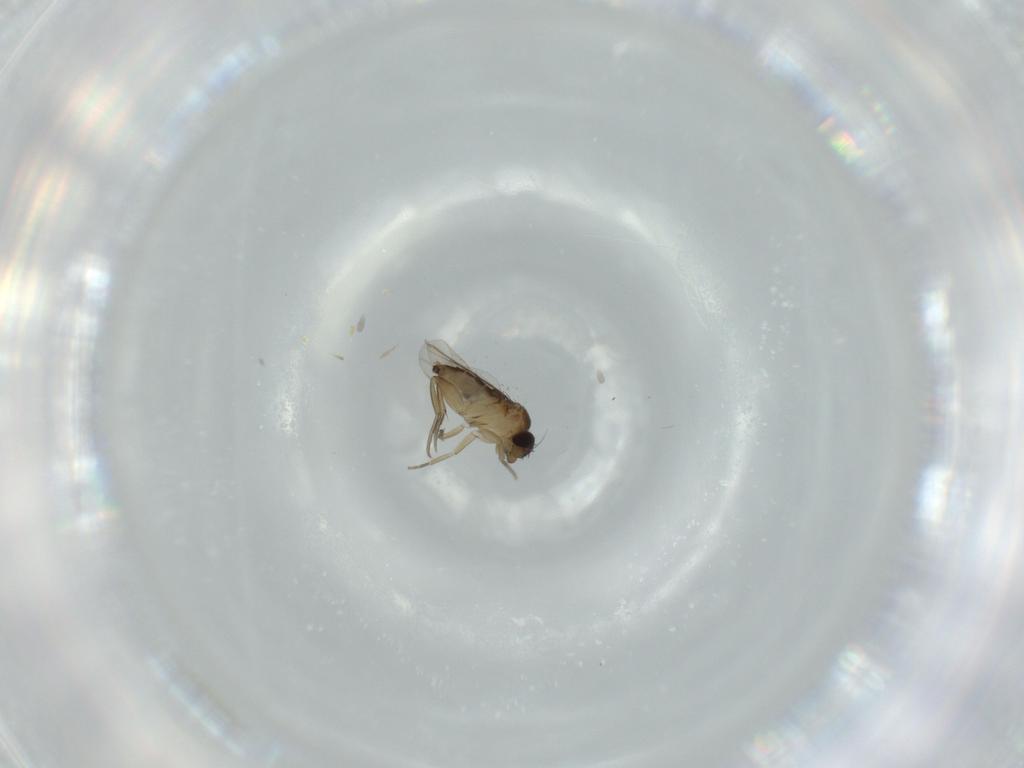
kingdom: Animalia
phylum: Arthropoda
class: Insecta
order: Diptera
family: Phoridae
